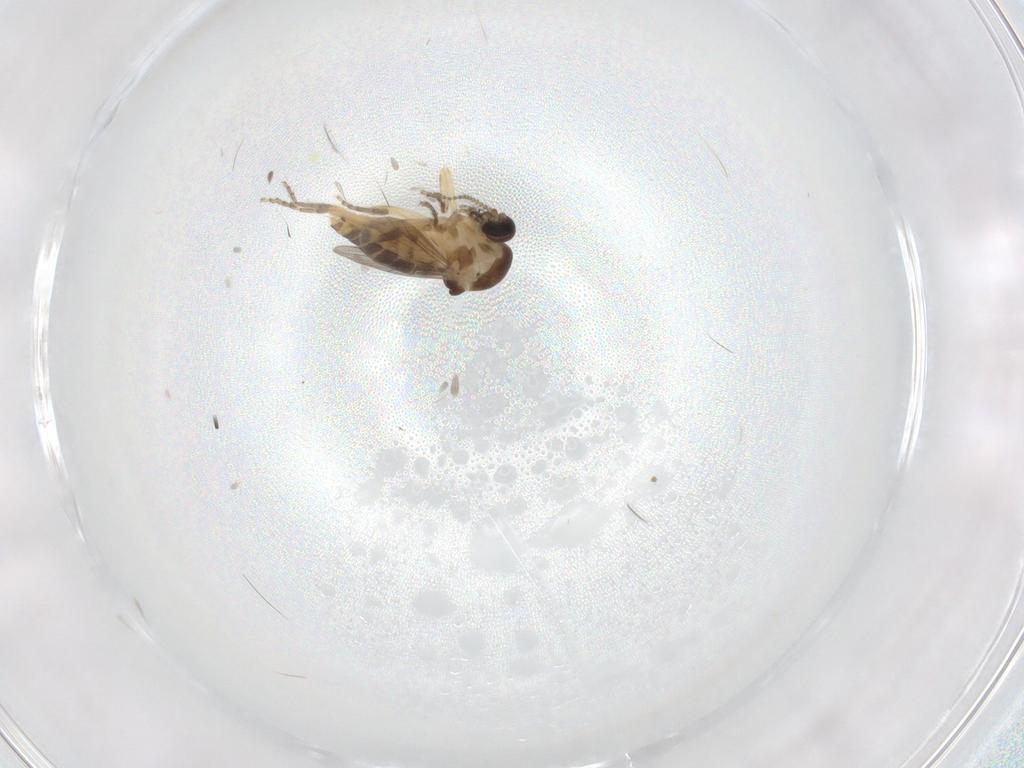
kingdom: Animalia
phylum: Arthropoda
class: Insecta
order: Diptera
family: Ceratopogonidae
